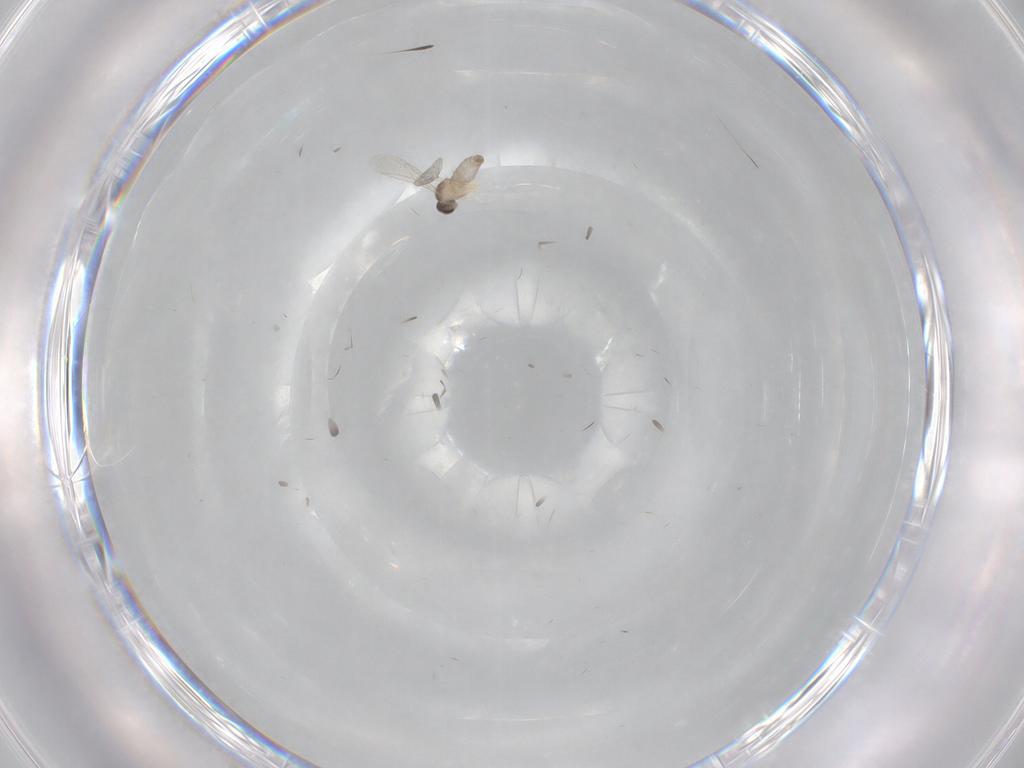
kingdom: Animalia
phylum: Arthropoda
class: Insecta
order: Diptera
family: Cecidomyiidae
